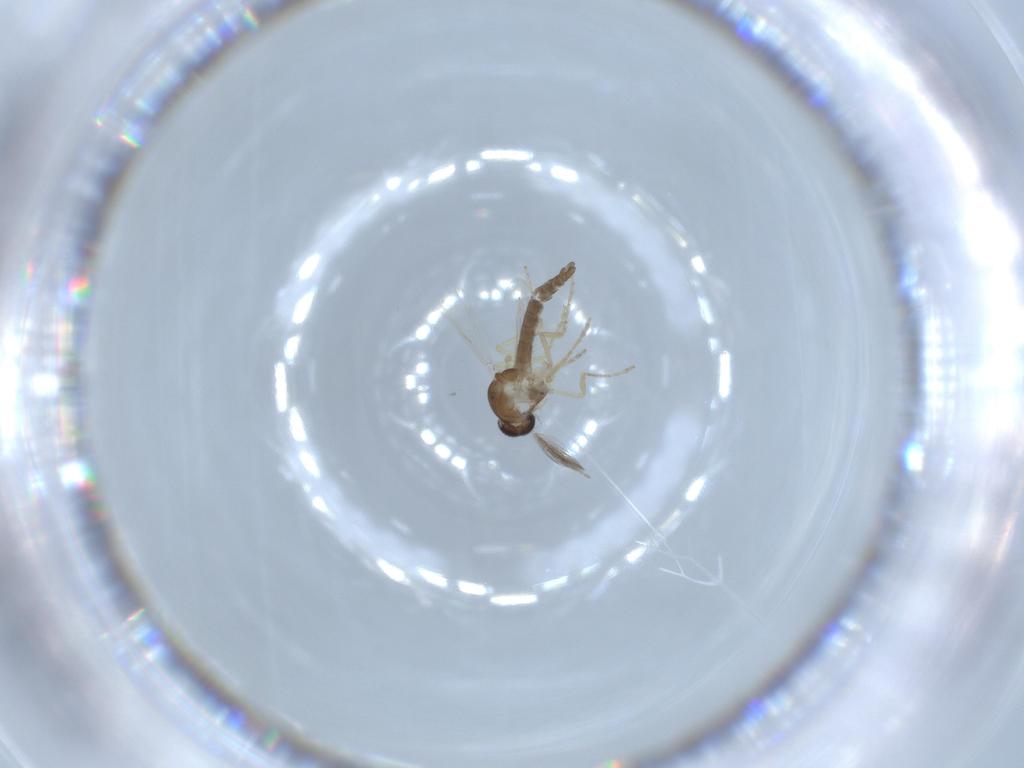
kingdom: Animalia
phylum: Arthropoda
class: Insecta
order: Diptera
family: Ceratopogonidae
